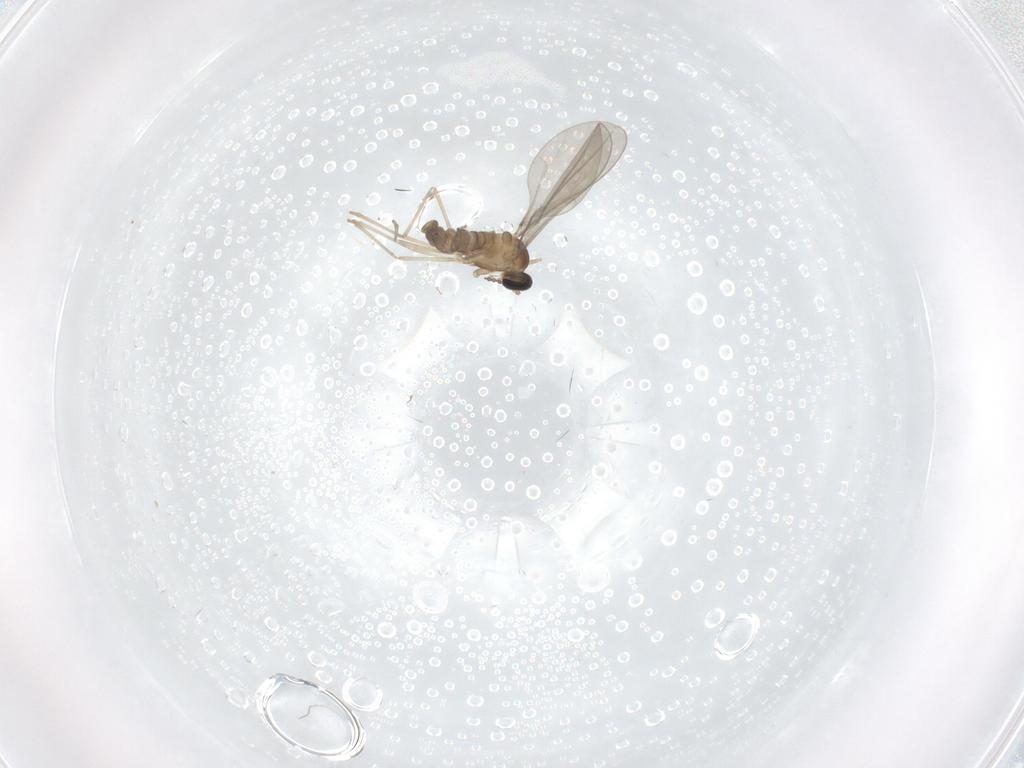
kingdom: Animalia
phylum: Arthropoda
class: Insecta
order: Diptera
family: Cecidomyiidae
